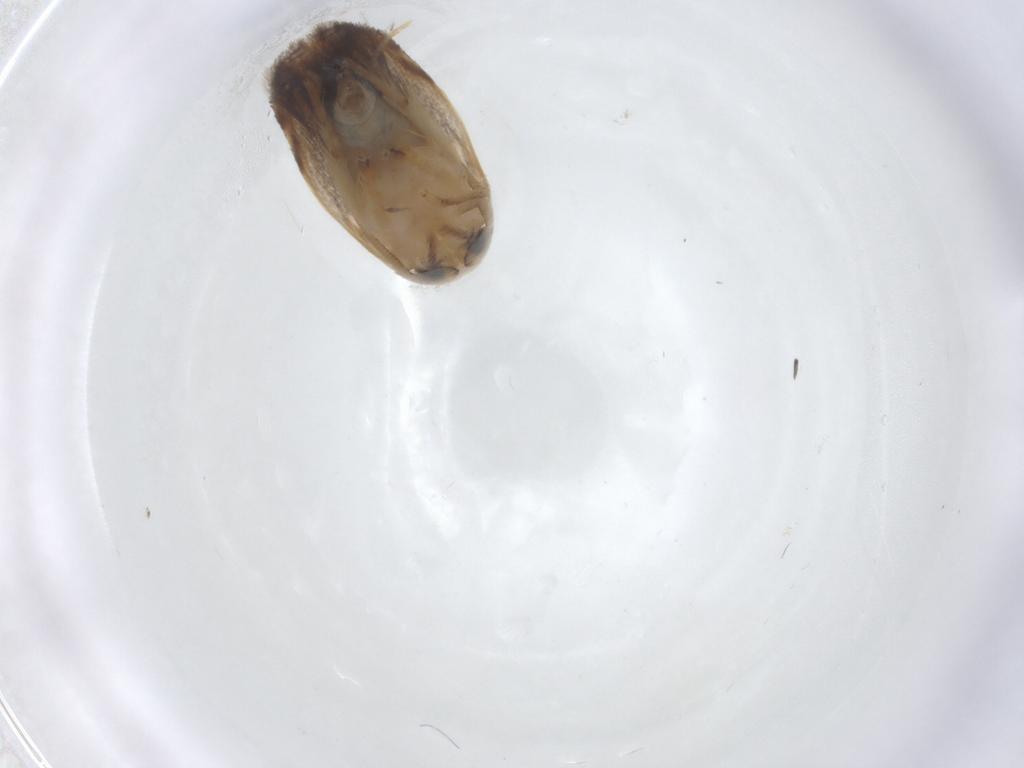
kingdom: Animalia
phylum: Arthropoda
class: Insecta
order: Lepidoptera
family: Opostegidae
